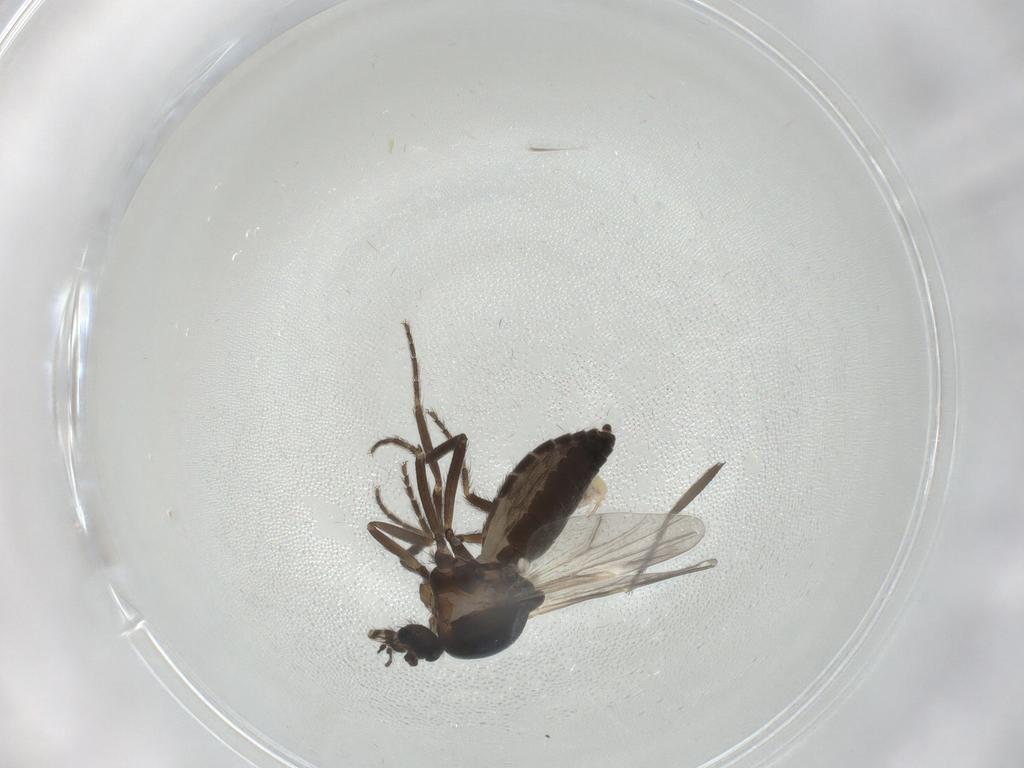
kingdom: Animalia
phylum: Arthropoda
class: Insecta
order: Diptera
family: Ceratopogonidae
